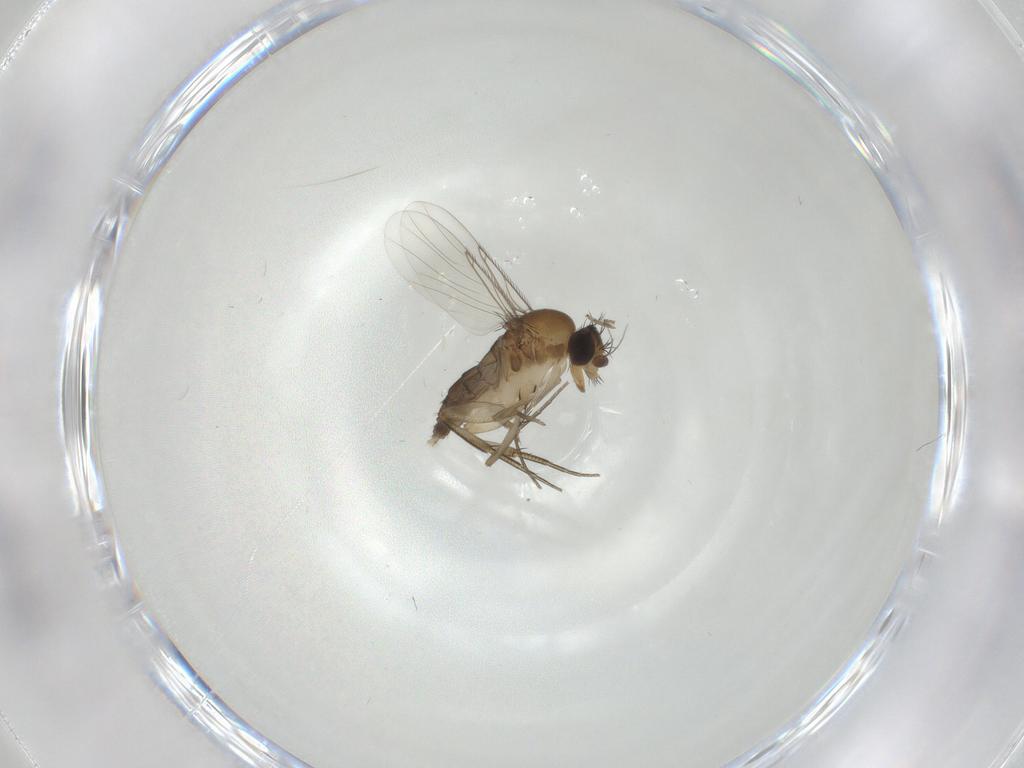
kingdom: Animalia
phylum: Arthropoda
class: Insecta
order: Diptera
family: Phoridae
